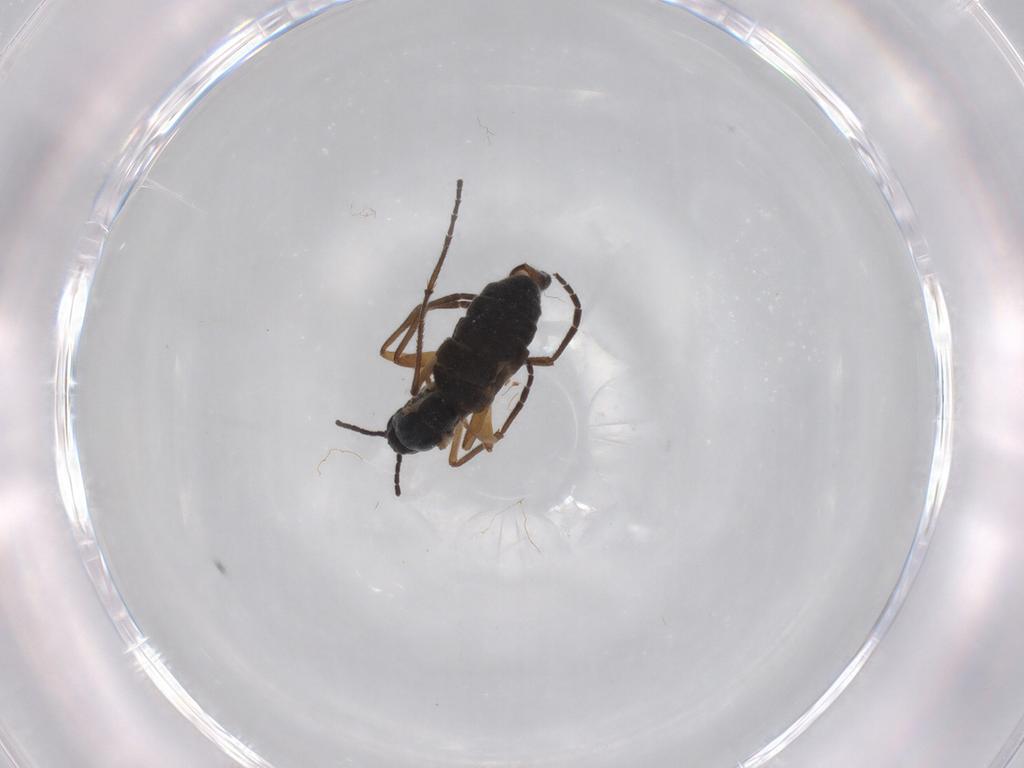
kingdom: Animalia
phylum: Arthropoda
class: Insecta
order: Diptera
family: Sciaridae
